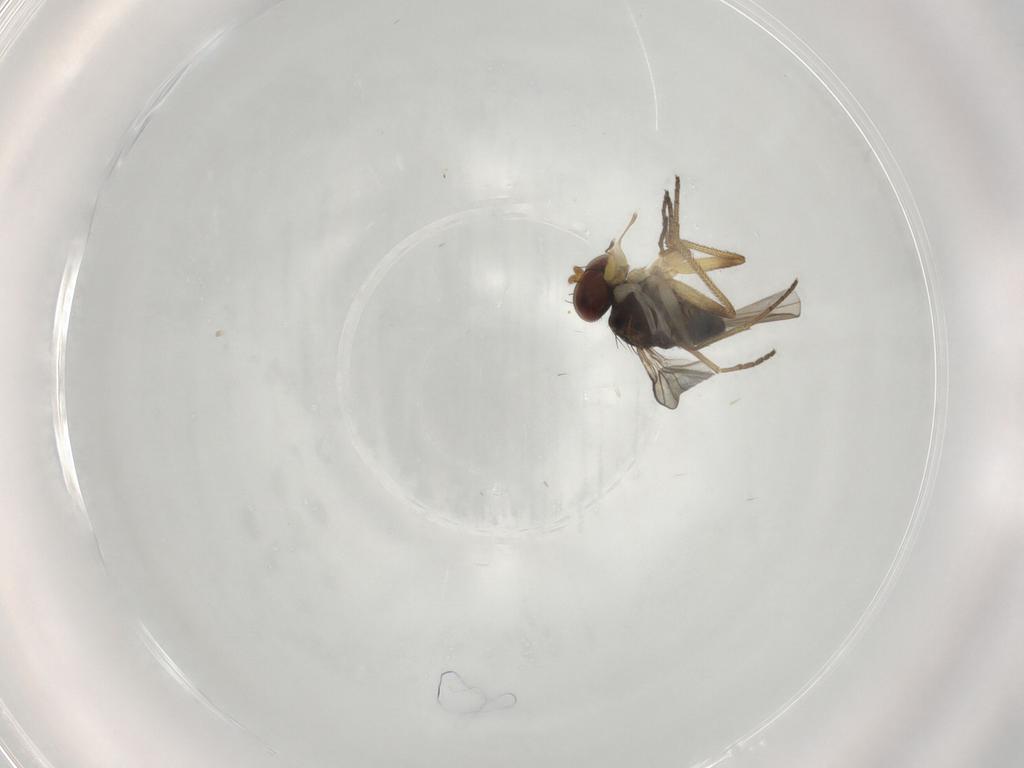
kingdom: Animalia
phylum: Arthropoda
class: Insecta
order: Diptera
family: Dolichopodidae
